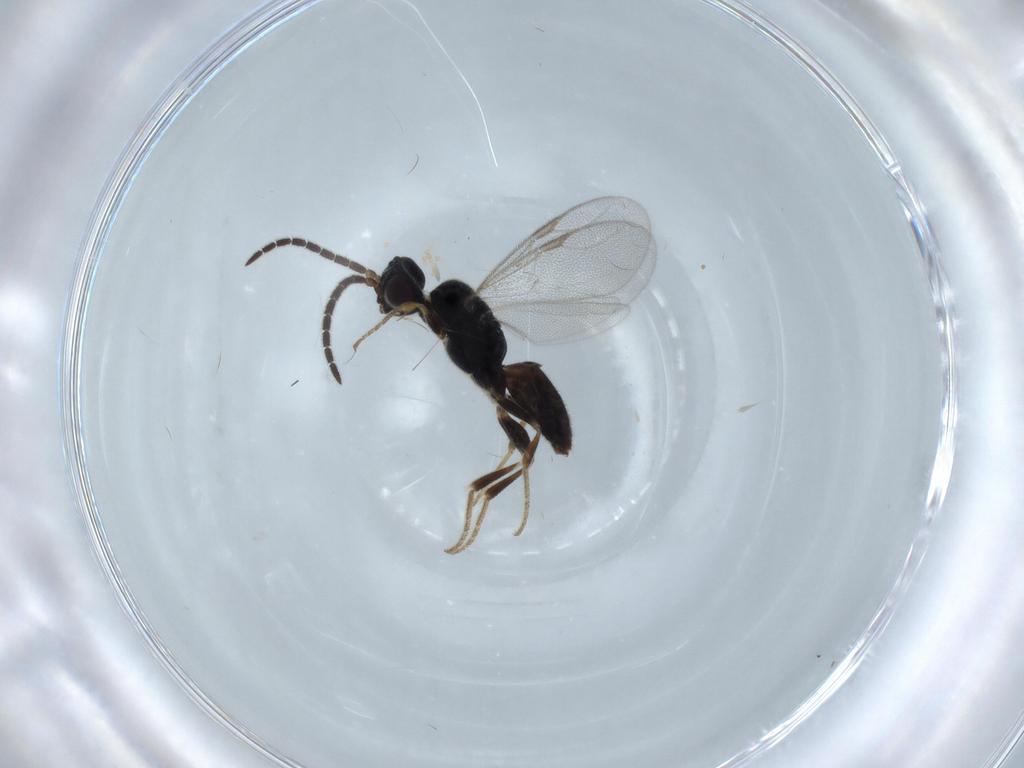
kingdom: Animalia
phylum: Arthropoda
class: Insecta
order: Hymenoptera
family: Dryinidae
